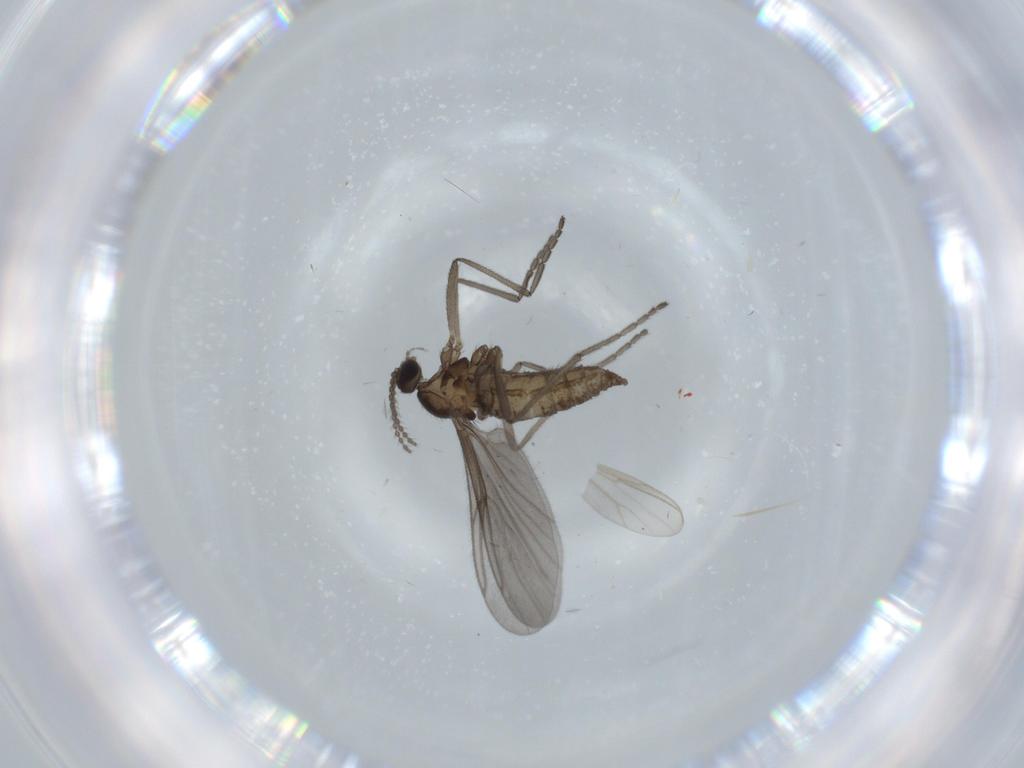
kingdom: Animalia
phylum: Arthropoda
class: Insecta
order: Diptera
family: Cecidomyiidae
